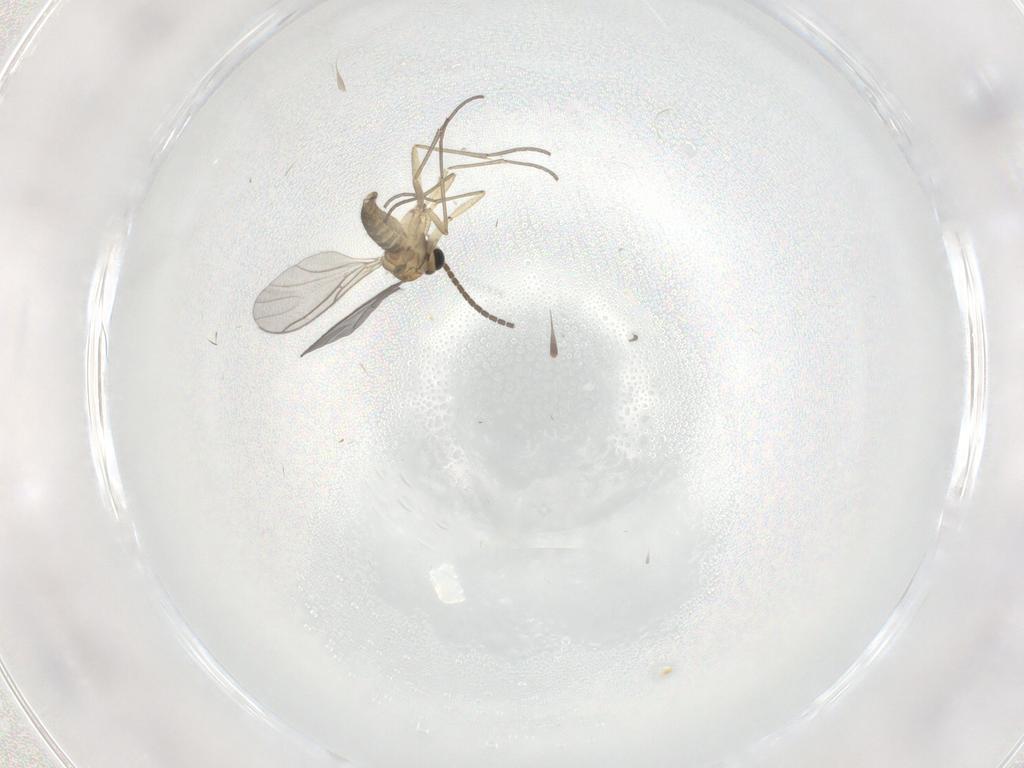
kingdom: Animalia
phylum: Arthropoda
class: Insecta
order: Diptera
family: Sciaridae
